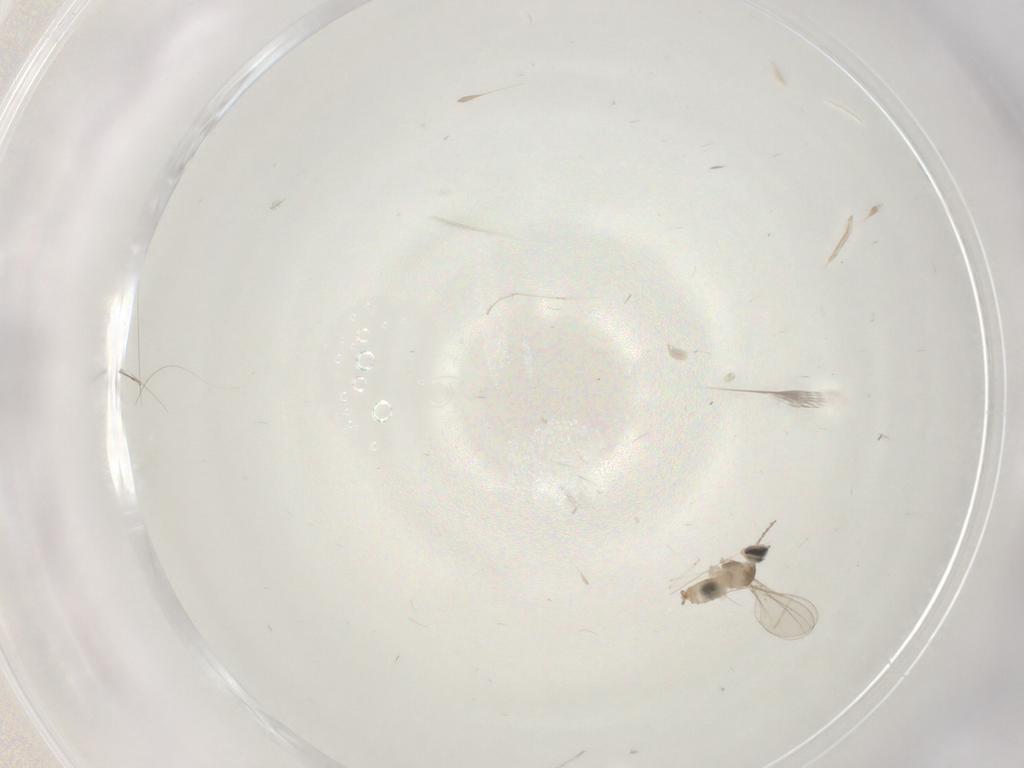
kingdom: Animalia
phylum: Arthropoda
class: Insecta
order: Diptera
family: Cecidomyiidae
